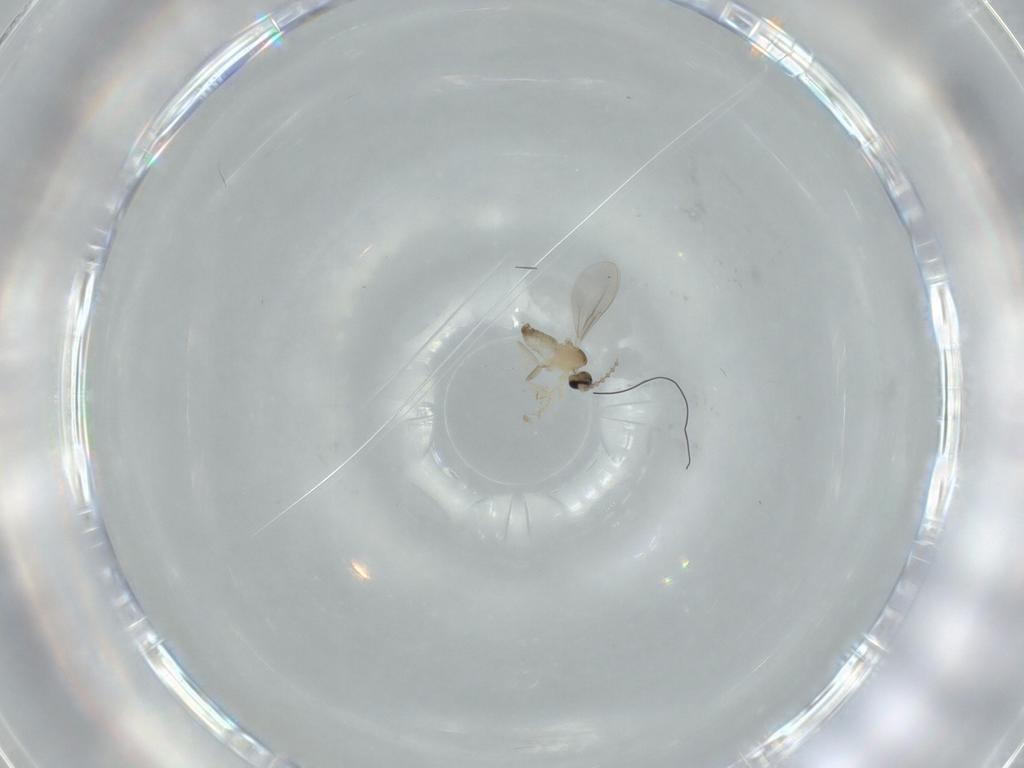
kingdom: Animalia
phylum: Arthropoda
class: Insecta
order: Diptera
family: Cecidomyiidae
